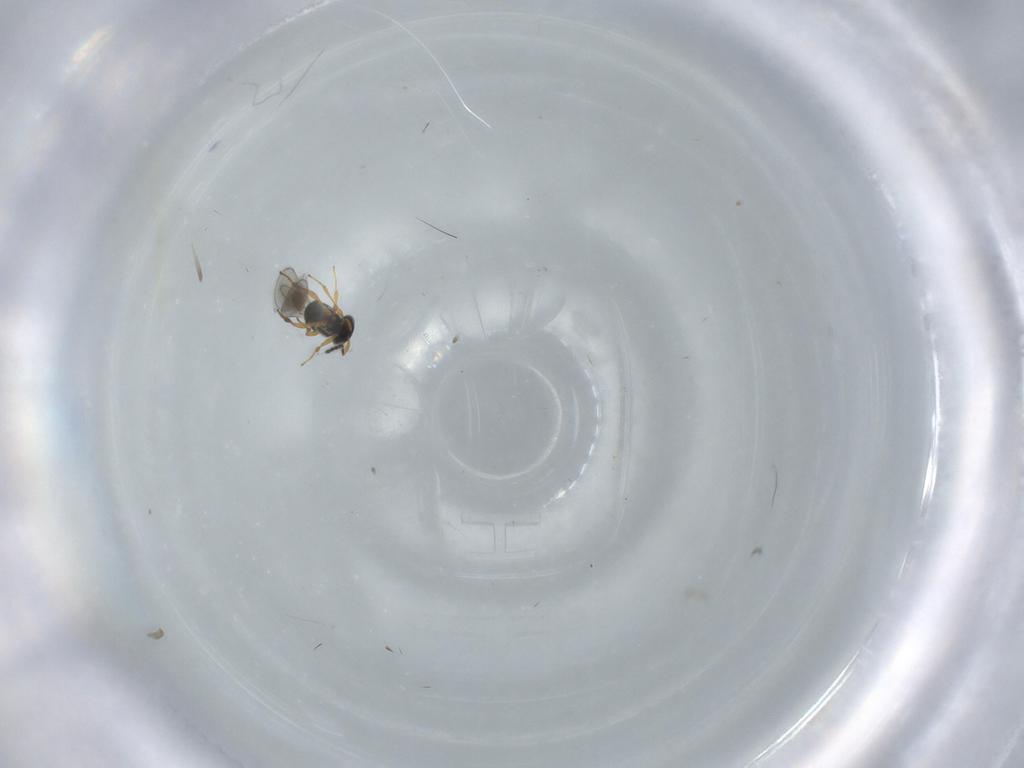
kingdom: Animalia
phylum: Arthropoda
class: Insecta
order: Hymenoptera
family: Platygastridae
